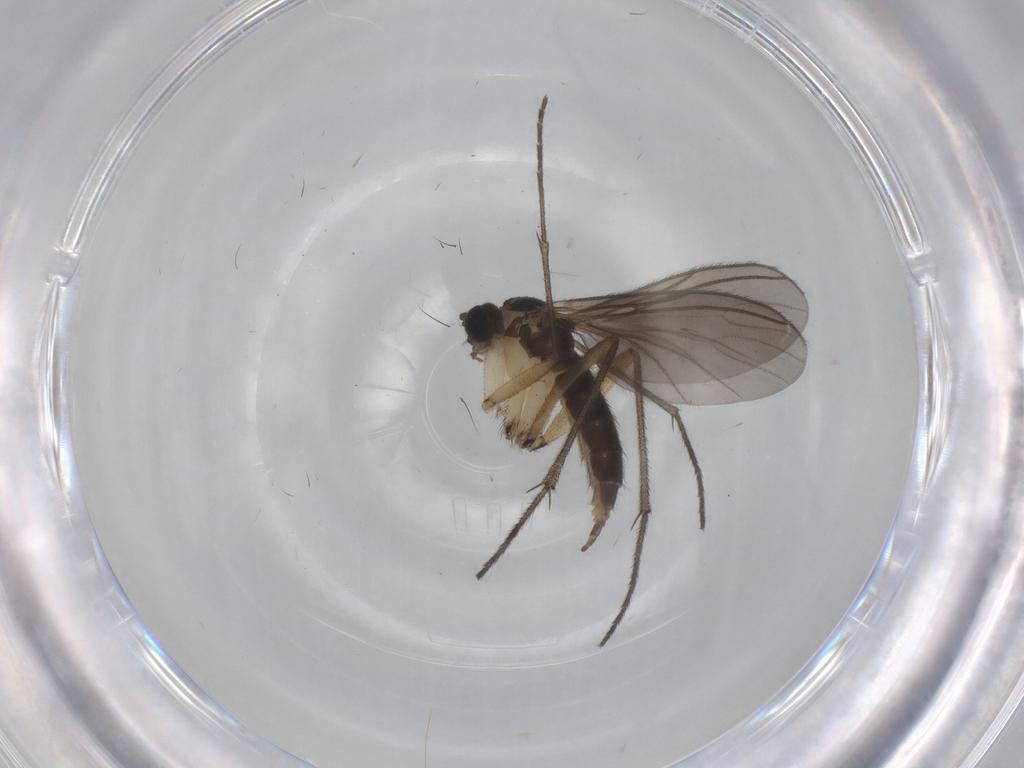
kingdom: Animalia
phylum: Arthropoda
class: Insecta
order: Diptera
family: Sciaridae
